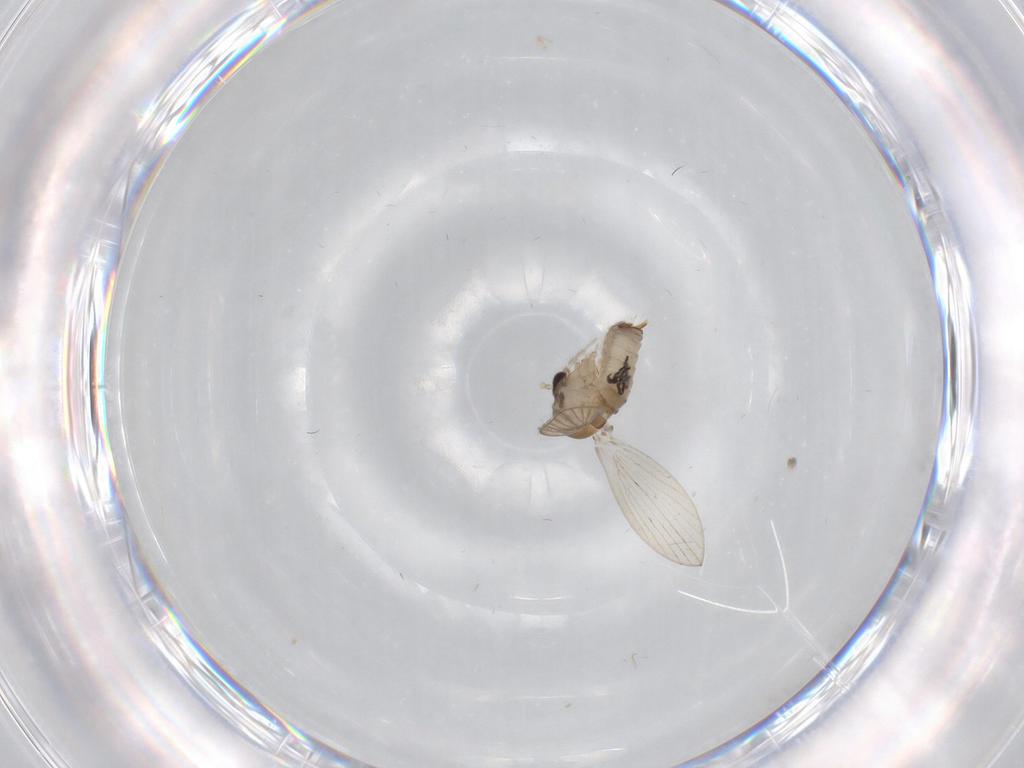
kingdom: Animalia
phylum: Arthropoda
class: Insecta
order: Diptera
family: Psychodidae
